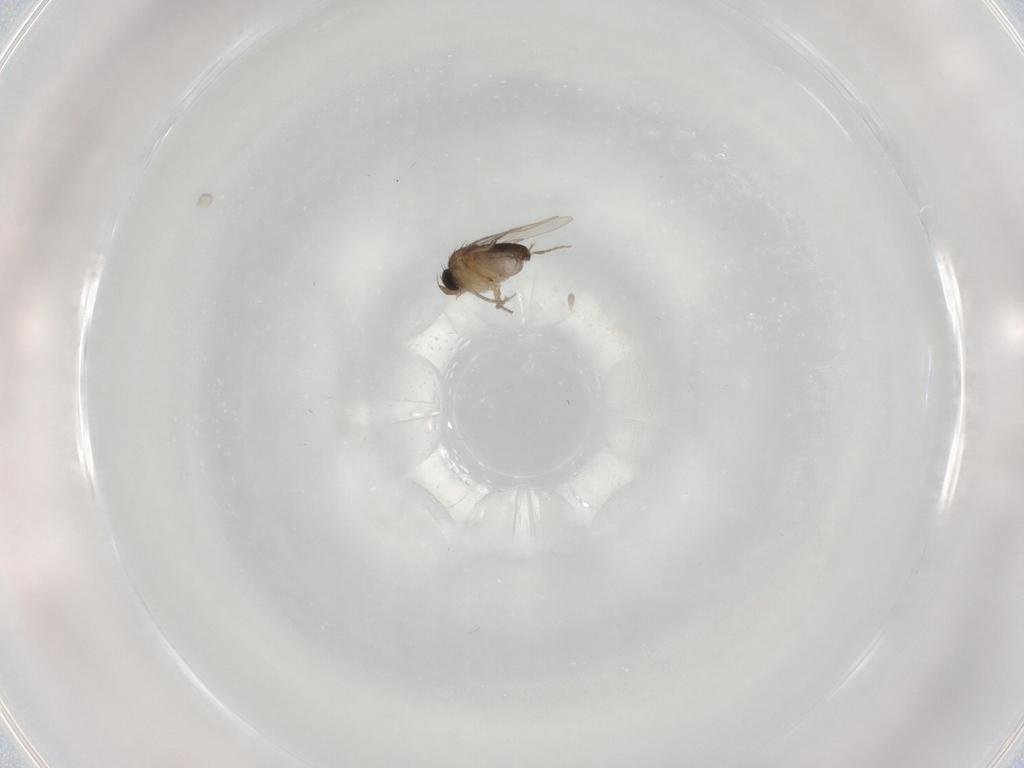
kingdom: Animalia
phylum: Arthropoda
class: Insecta
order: Diptera
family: Phoridae
